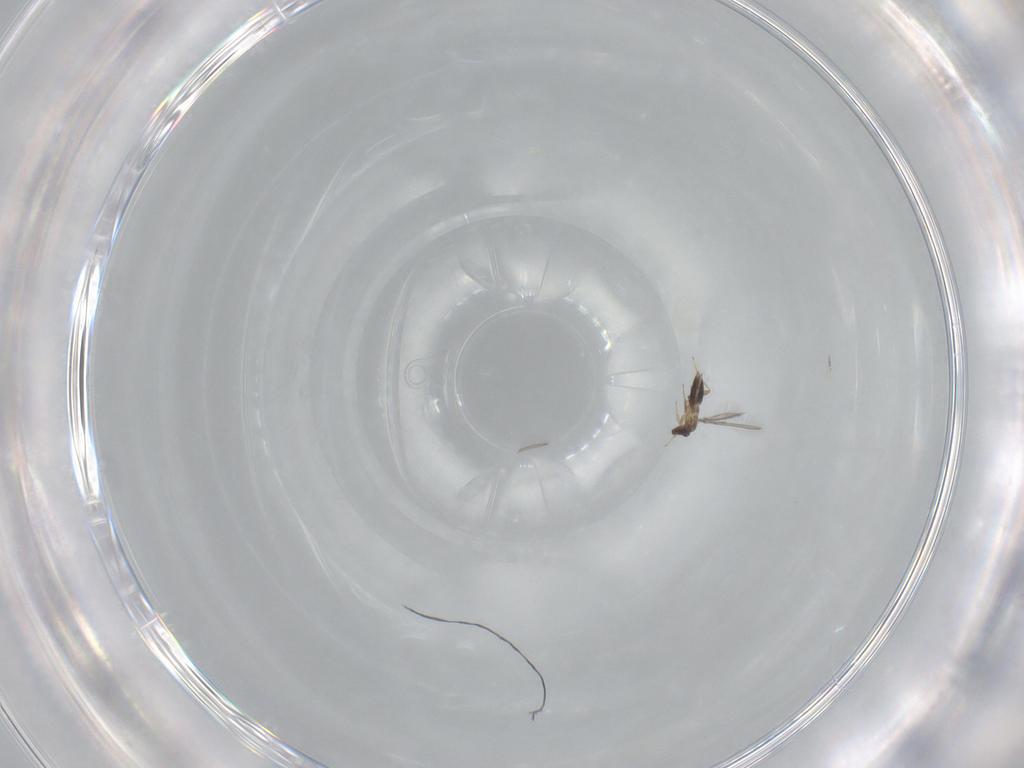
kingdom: Animalia
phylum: Arthropoda
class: Insecta
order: Hymenoptera
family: Mymaridae
